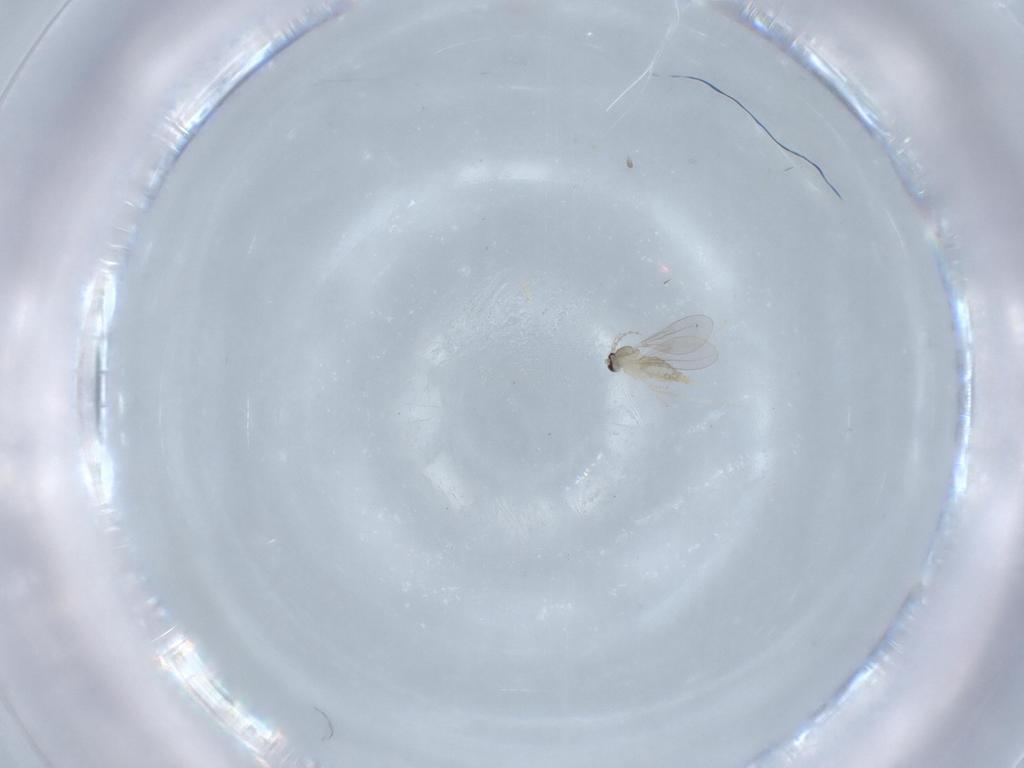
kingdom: Animalia
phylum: Arthropoda
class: Insecta
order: Diptera
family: Cecidomyiidae
